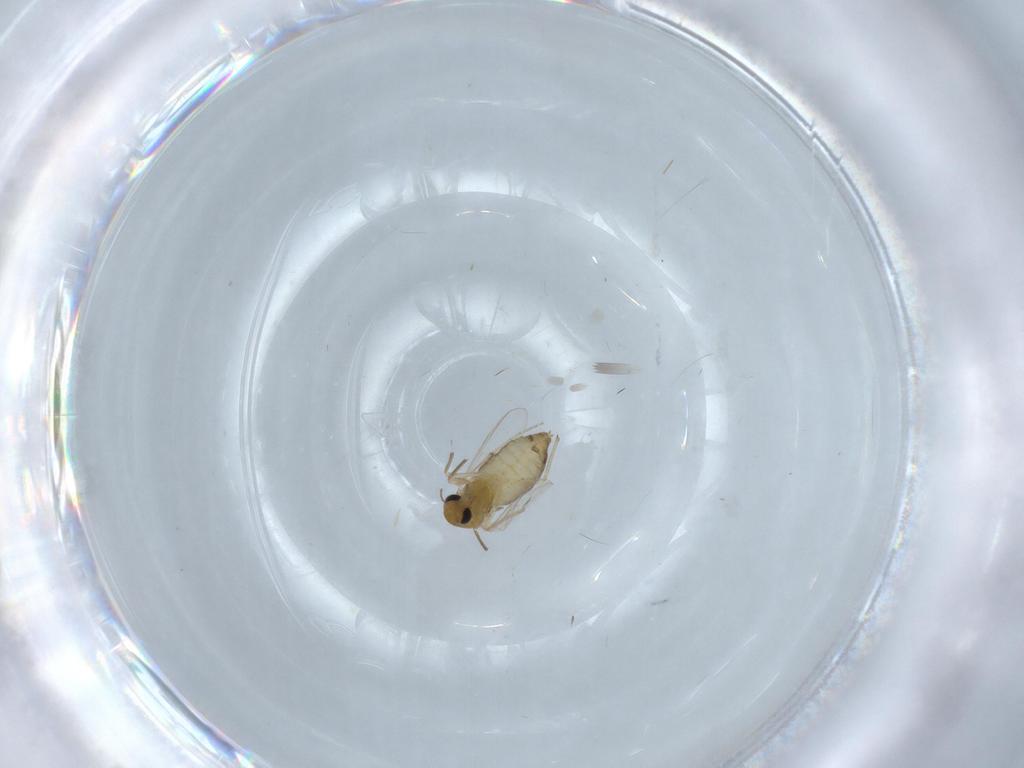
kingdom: Animalia
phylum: Arthropoda
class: Insecta
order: Diptera
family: Chironomidae
